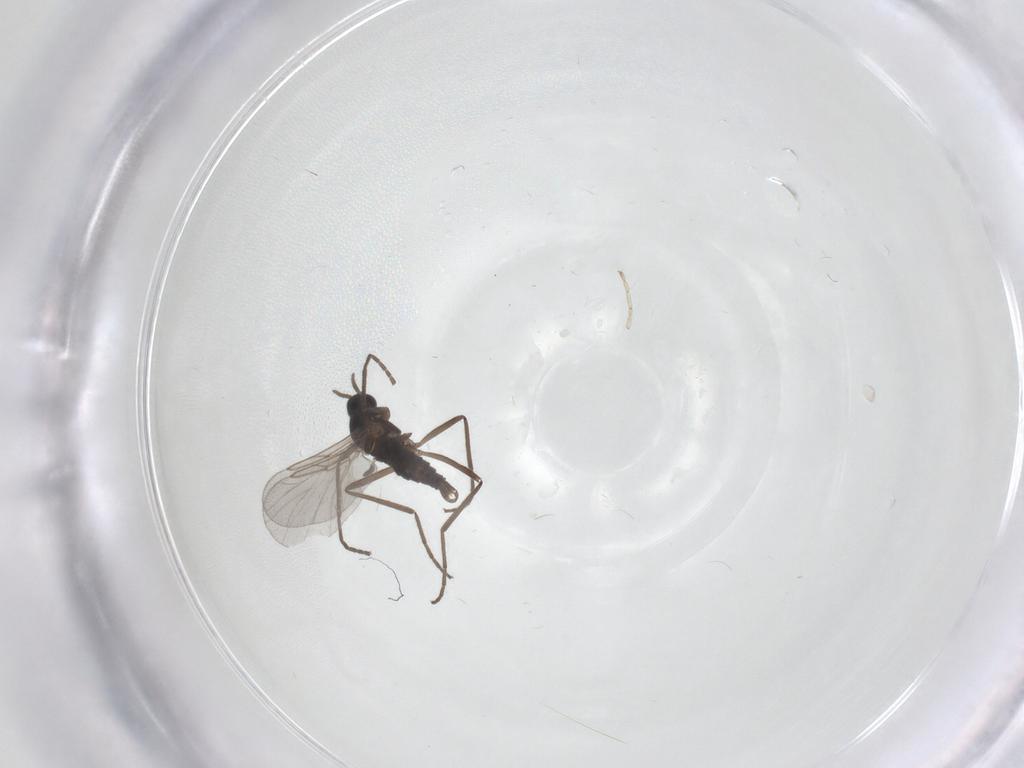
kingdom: Animalia
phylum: Arthropoda
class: Insecta
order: Diptera
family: Cecidomyiidae
